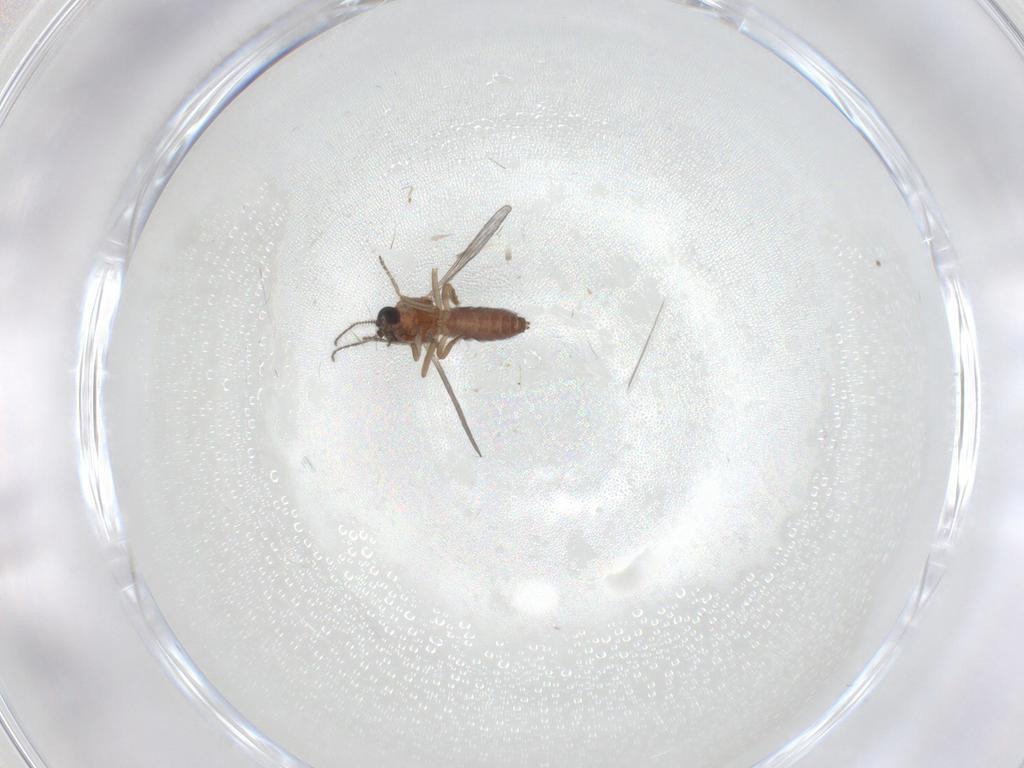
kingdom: Animalia
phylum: Arthropoda
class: Insecta
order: Diptera
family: Ceratopogonidae
